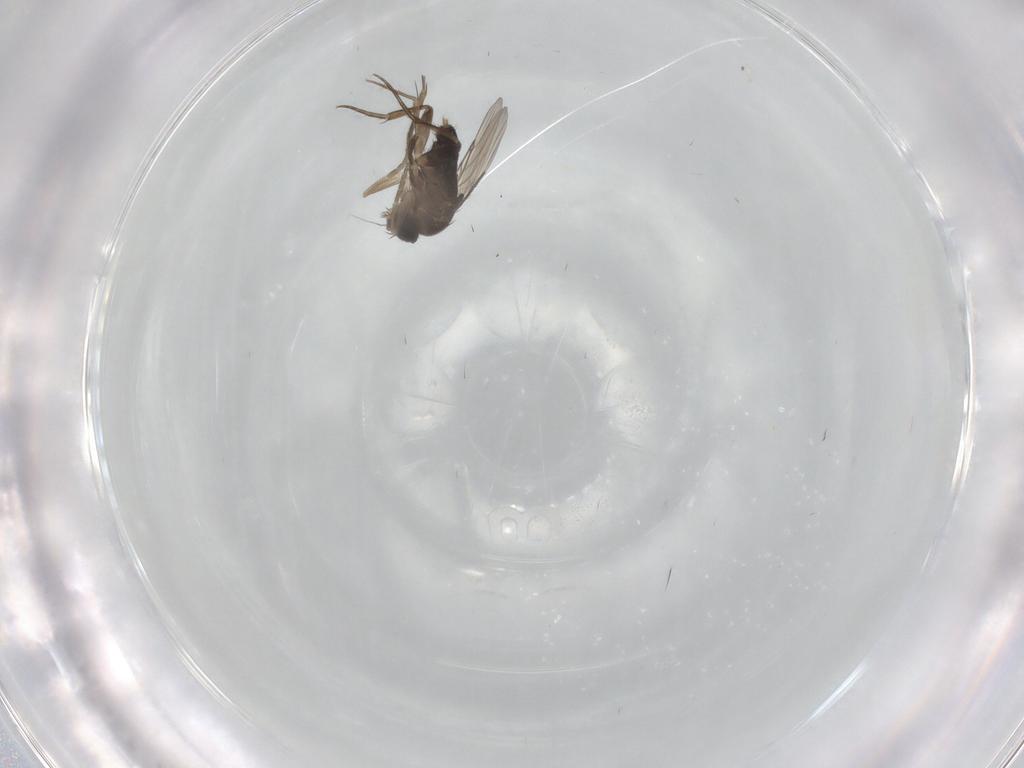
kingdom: Animalia
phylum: Arthropoda
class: Insecta
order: Diptera
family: Phoridae
